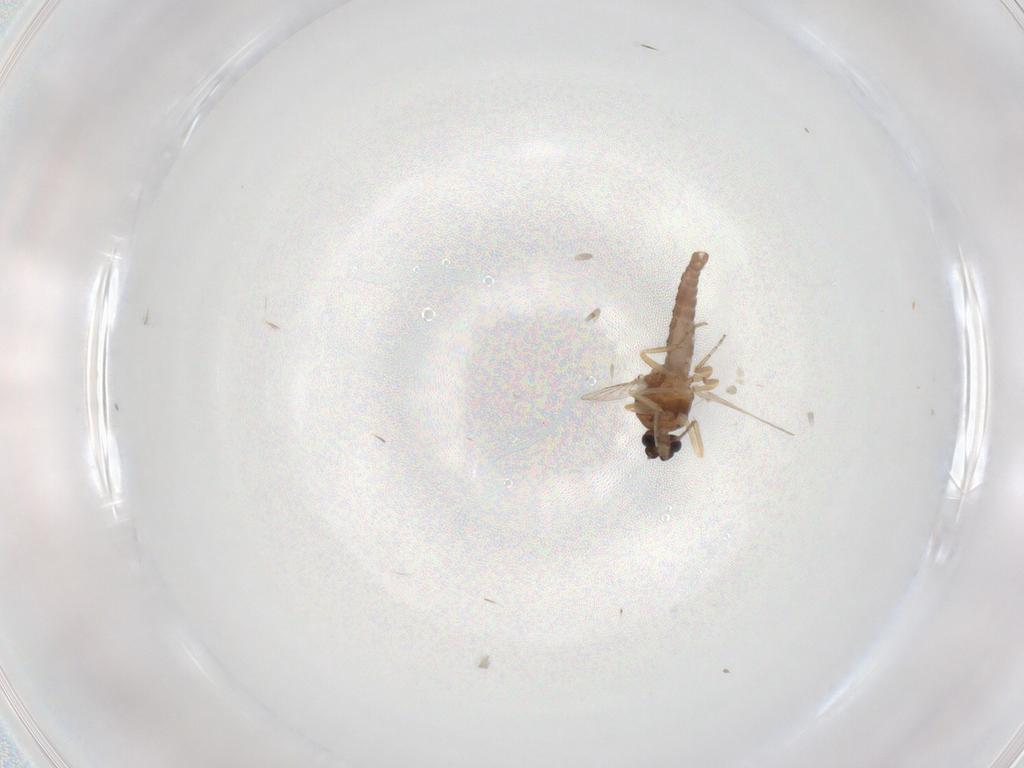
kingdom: Animalia
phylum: Arthropoda
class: Insecta
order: Diptera
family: Ceratopogonidae
